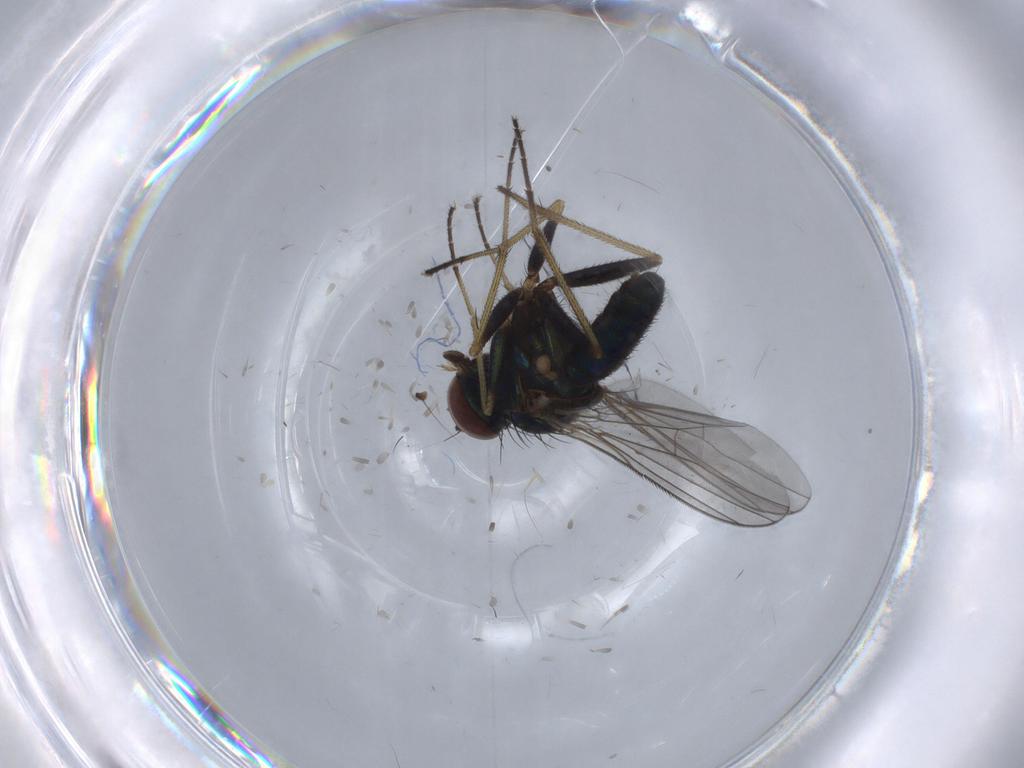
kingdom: Animalia
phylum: Arthropoda
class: Insecta
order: Diptera
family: Dolichopodidae
